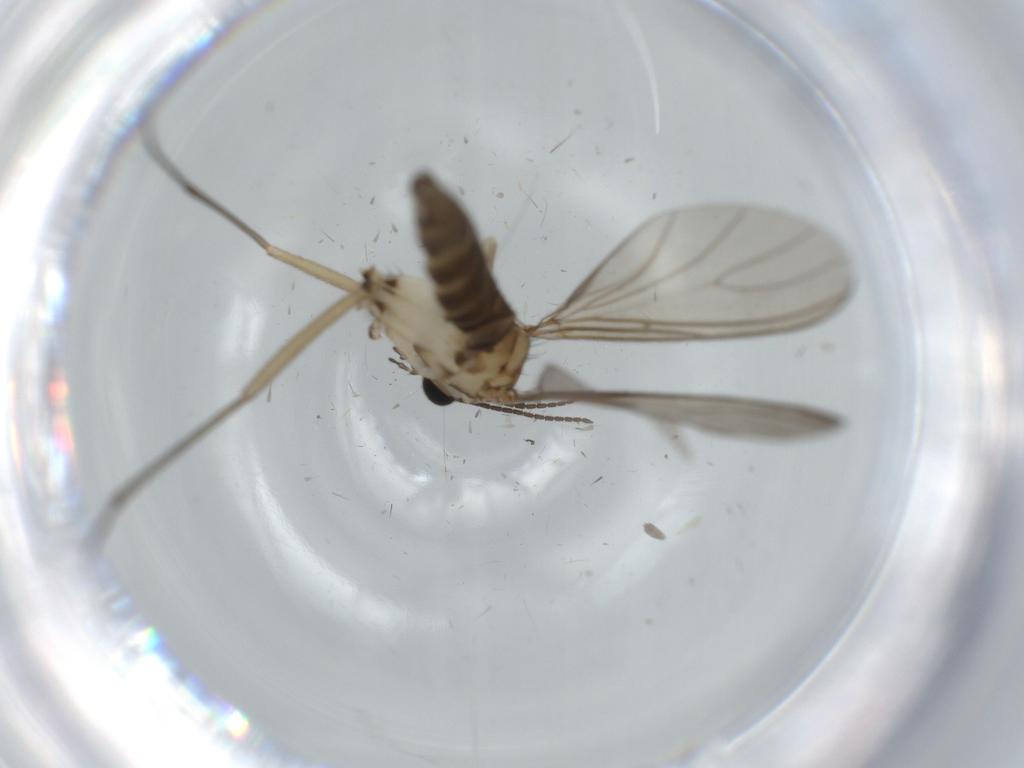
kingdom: Animalia
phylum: Arthropoda
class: Insecta
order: Diptera
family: Sciaridae
